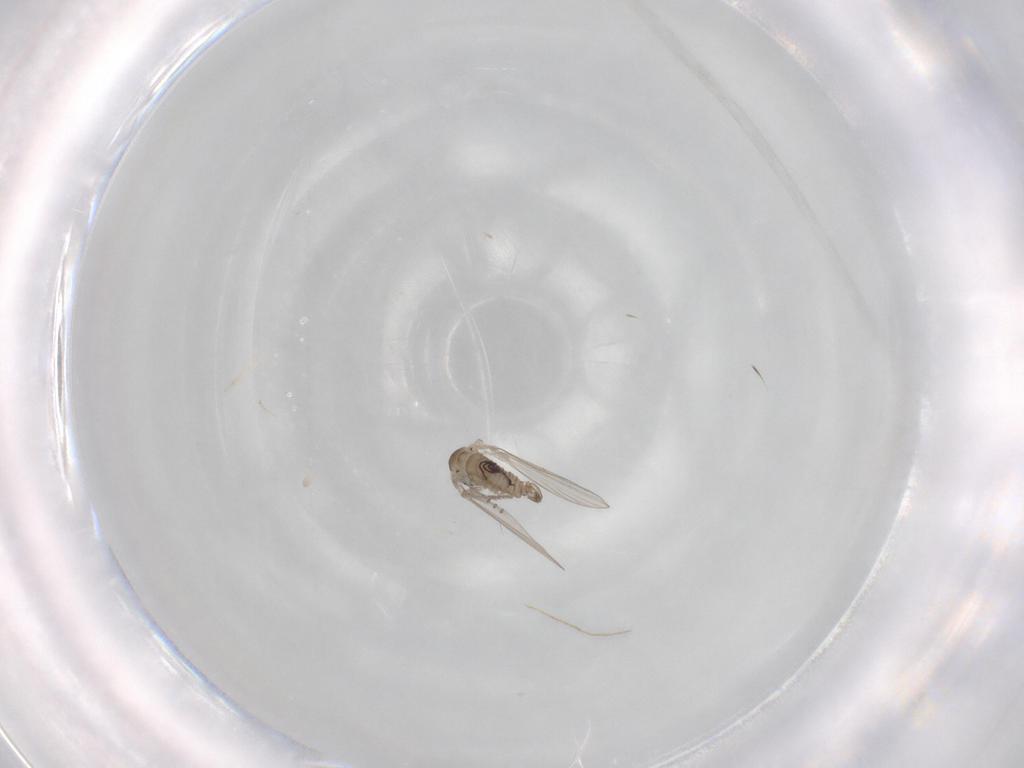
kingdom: Animalia
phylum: Arthropoda
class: Insecta
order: Diptera
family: Psychodidae
